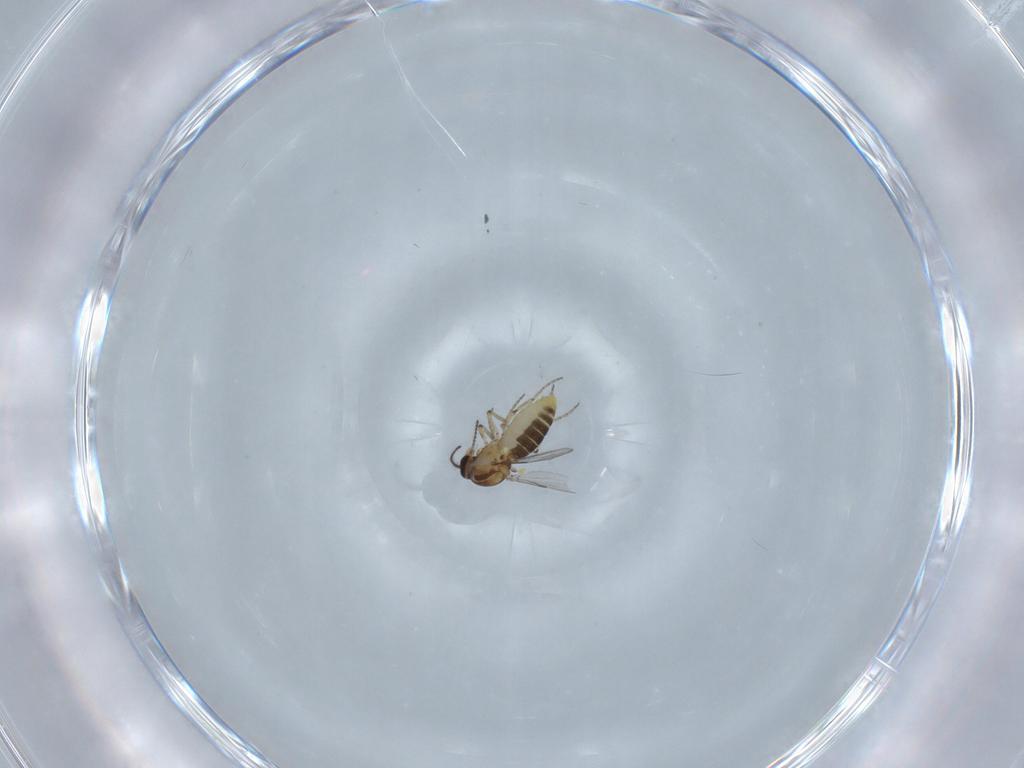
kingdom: Animalia
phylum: Arthropoda
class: Insecta
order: Diptera
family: Ceratopogonidae
